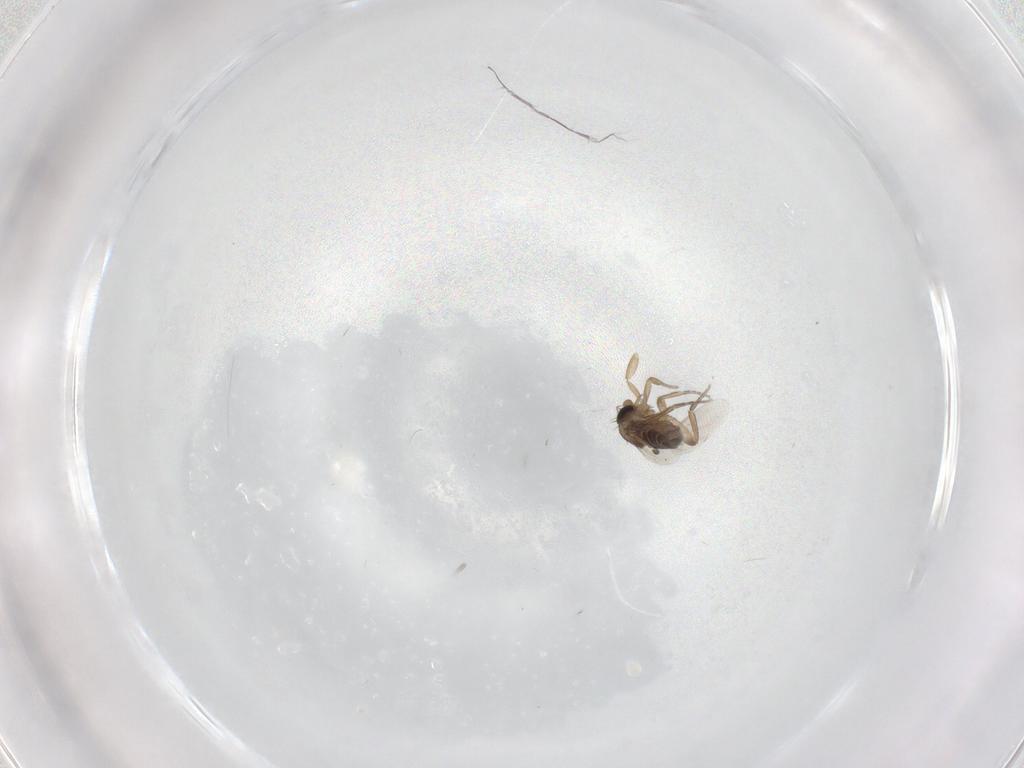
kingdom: Animalia
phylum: Arthropoda
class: Insecta
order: Diptera
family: Phoridae
